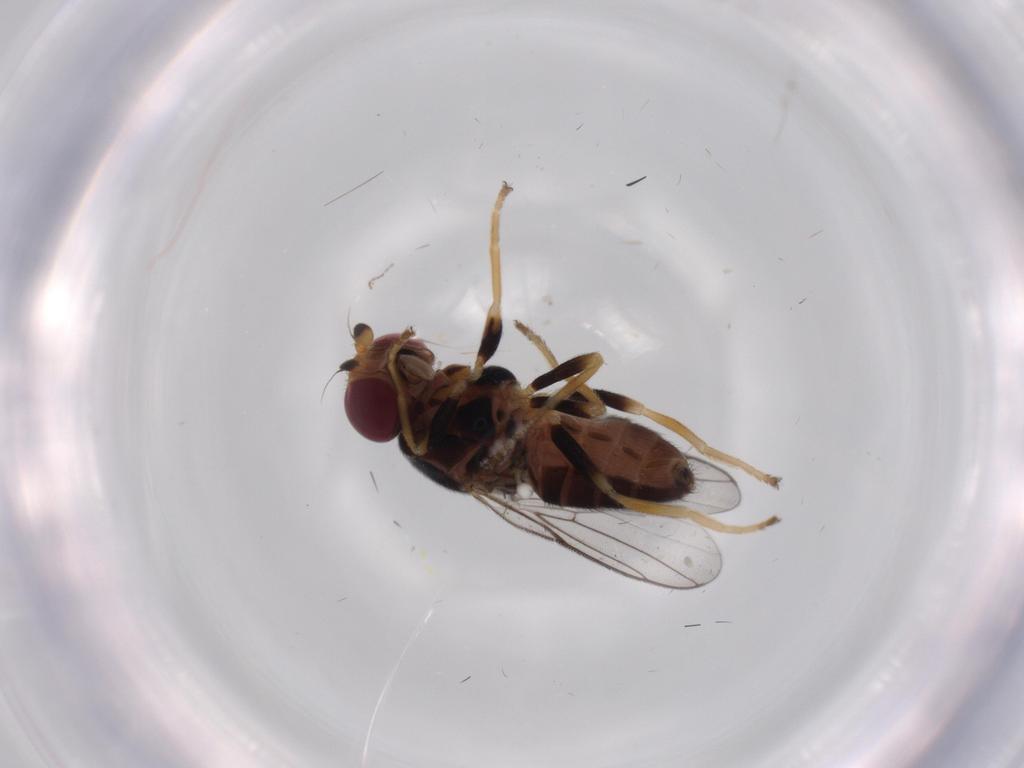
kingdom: Animalia
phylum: Arthropoda
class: Insecta
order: Diptera
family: Chloropidae
